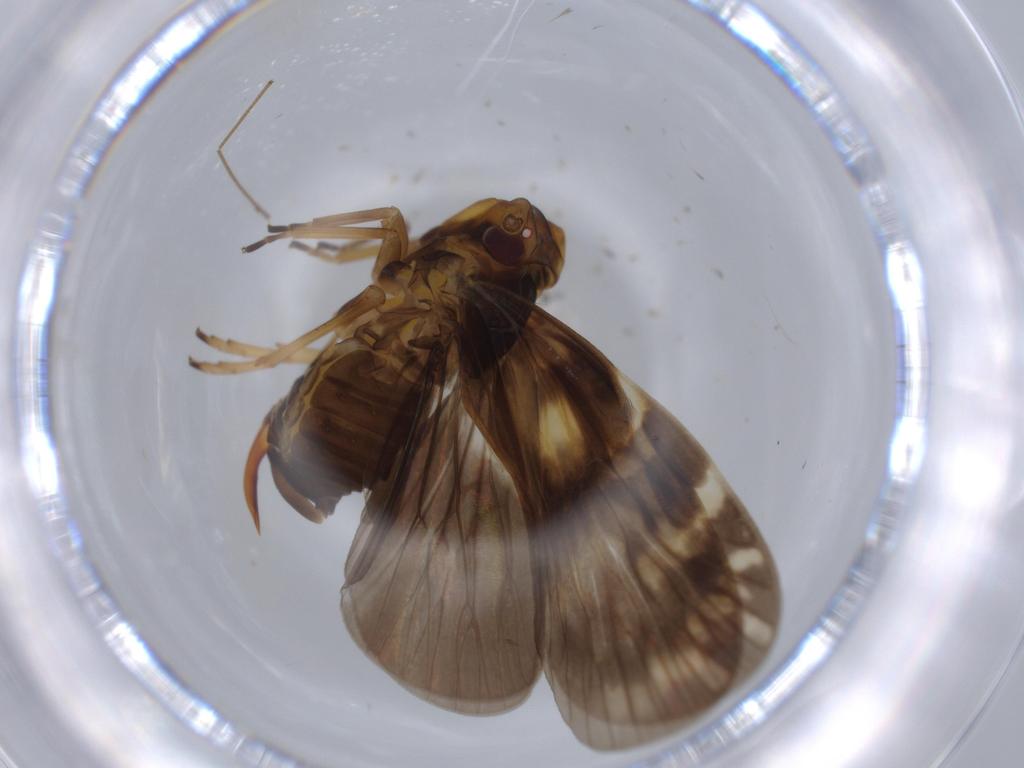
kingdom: Animalia
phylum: Arthropoda
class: Insecta
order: Hemiptera
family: Cixiidae
